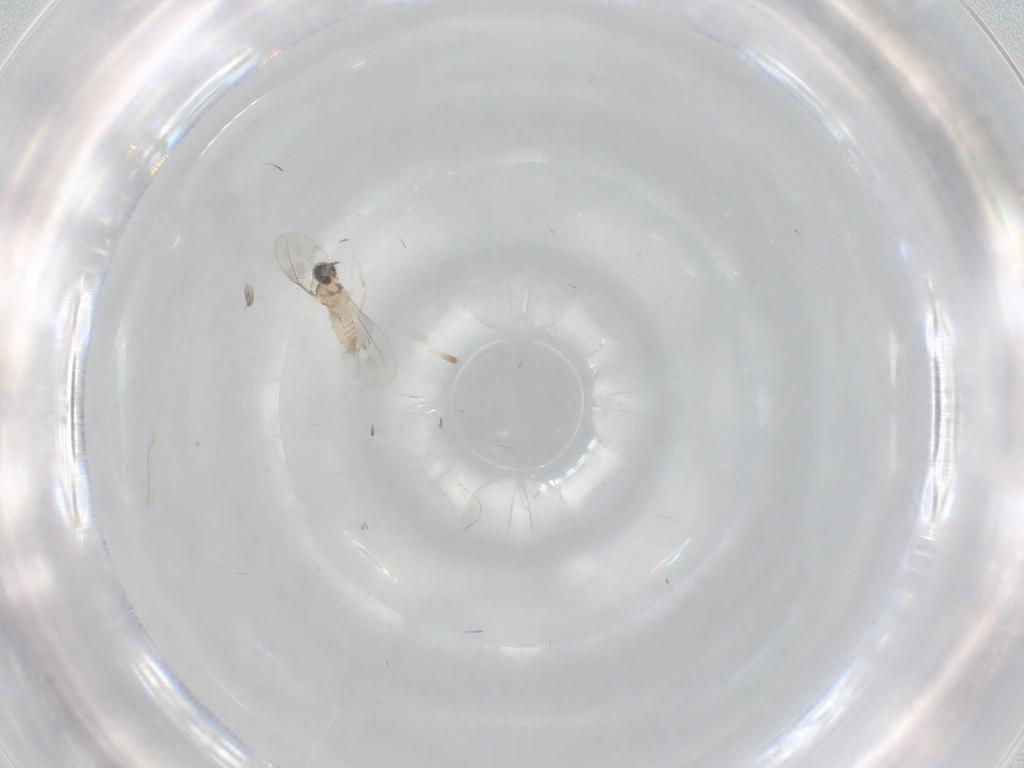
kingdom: Animalia
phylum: Arthropoda
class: Insecta
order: Diptera
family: Cecidomyiidae
